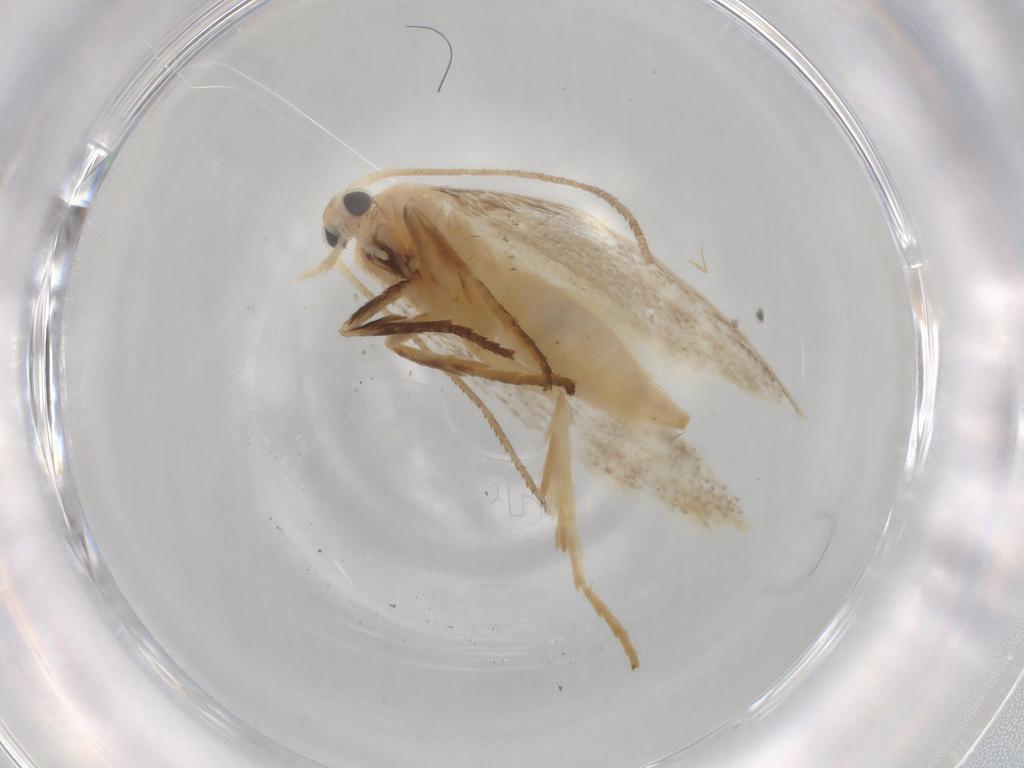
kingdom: Animalia
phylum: Arthropoda
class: Insecta
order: Lepidoptera
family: Elachistidae
